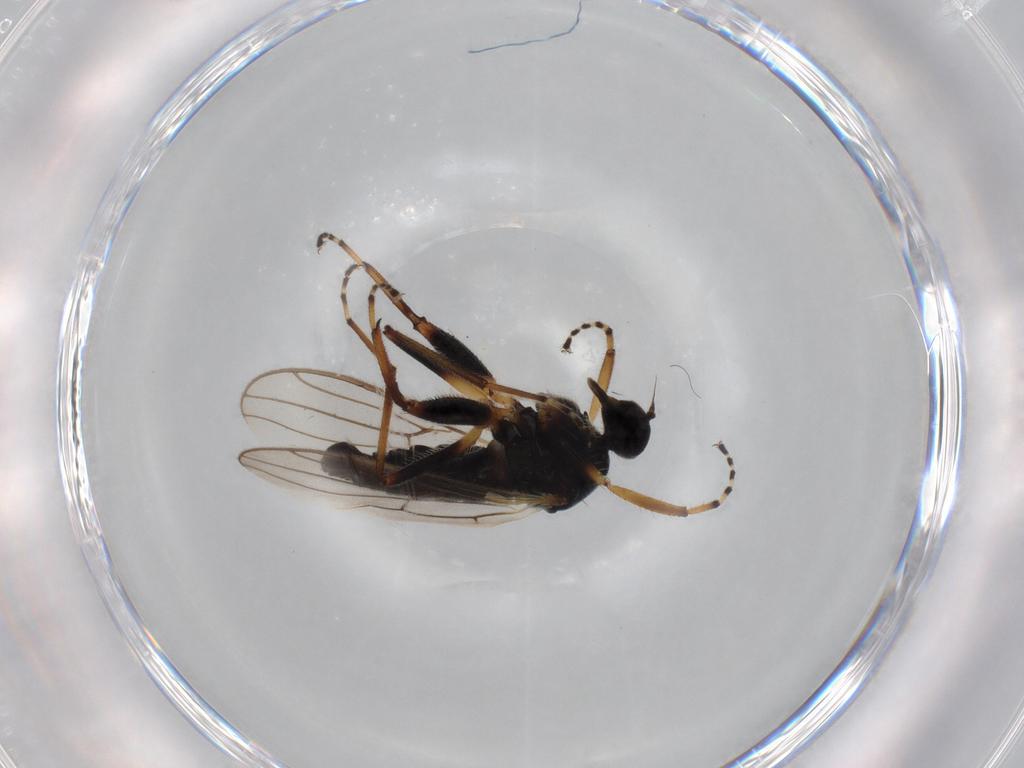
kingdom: Animalia
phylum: Arthropoda
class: Insecta
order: Diptera
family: Hybotidae
